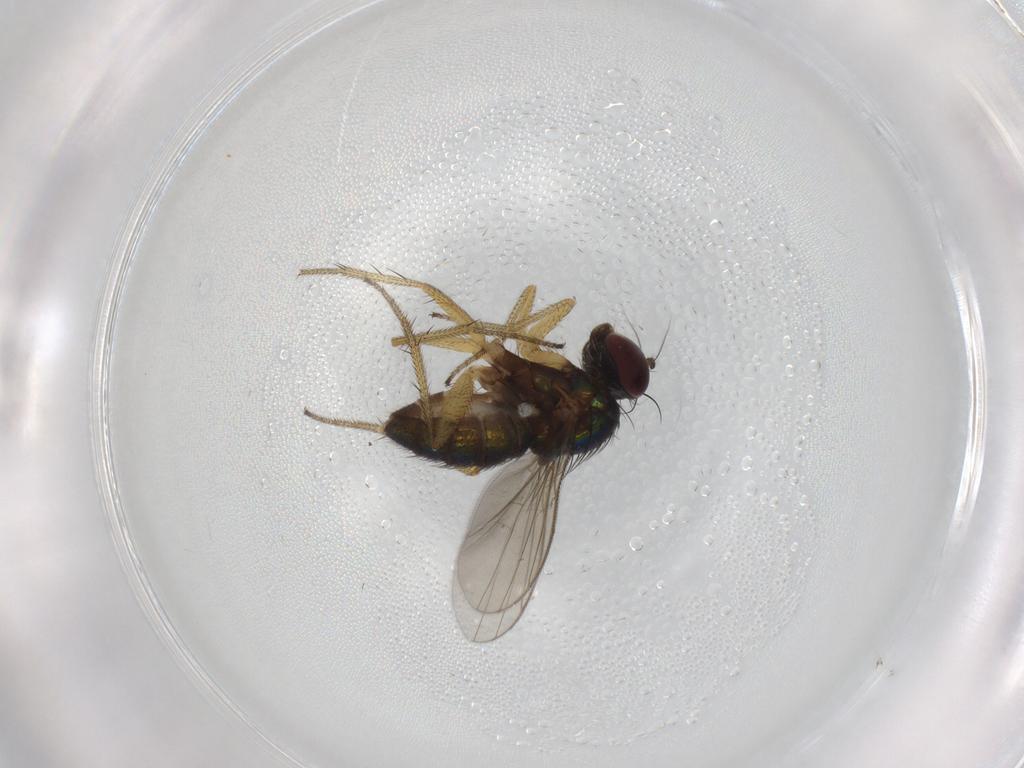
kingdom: Animalia
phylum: Arthropoda
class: Insecta
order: Diptera
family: Chironomidae
